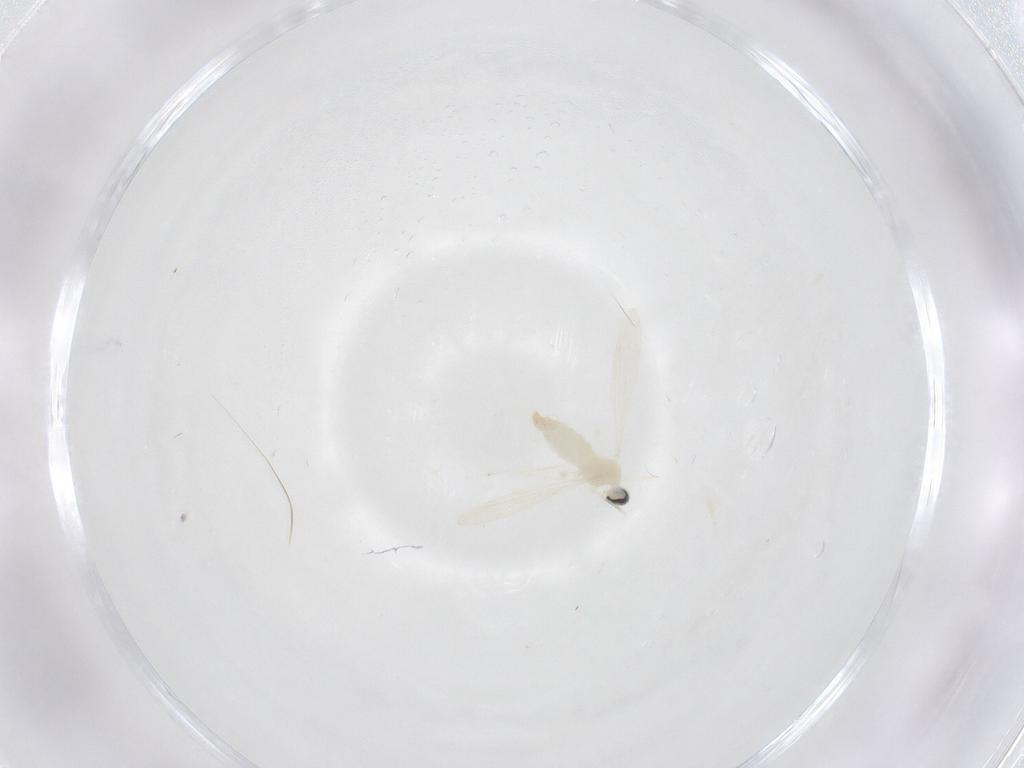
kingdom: Animalia
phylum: Arthropoda
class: Insecta
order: Diptera
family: Cecidomyiidae
